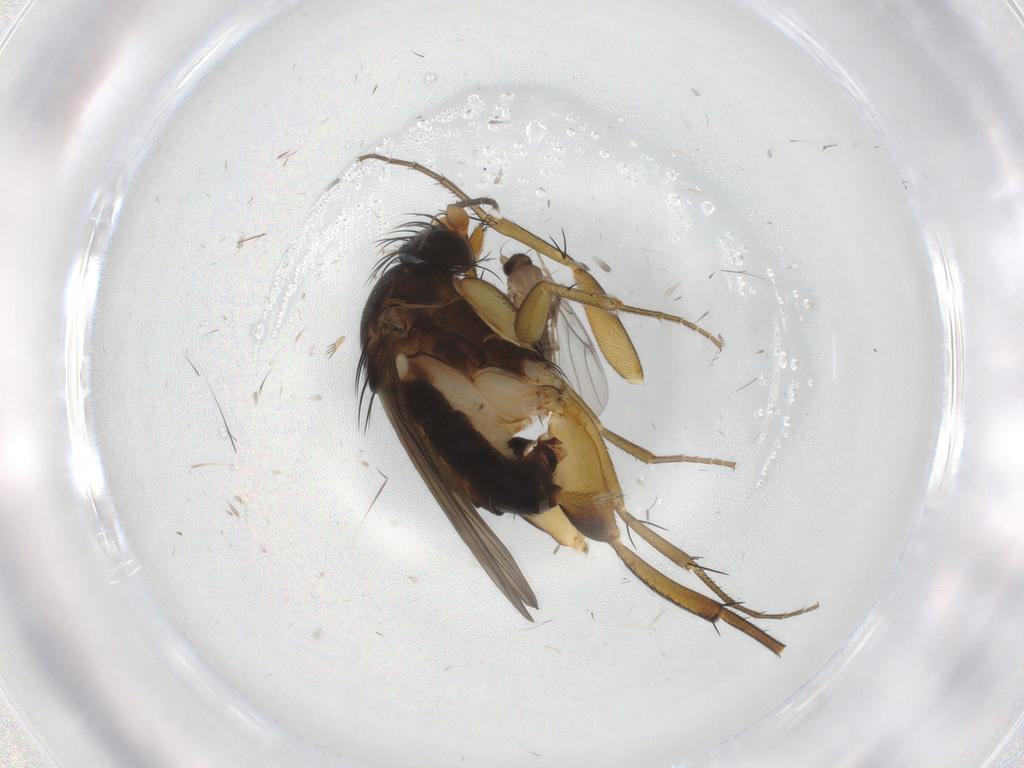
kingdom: Animalia
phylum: Arthropoda
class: Insecta
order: Diptera
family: Phoridae
